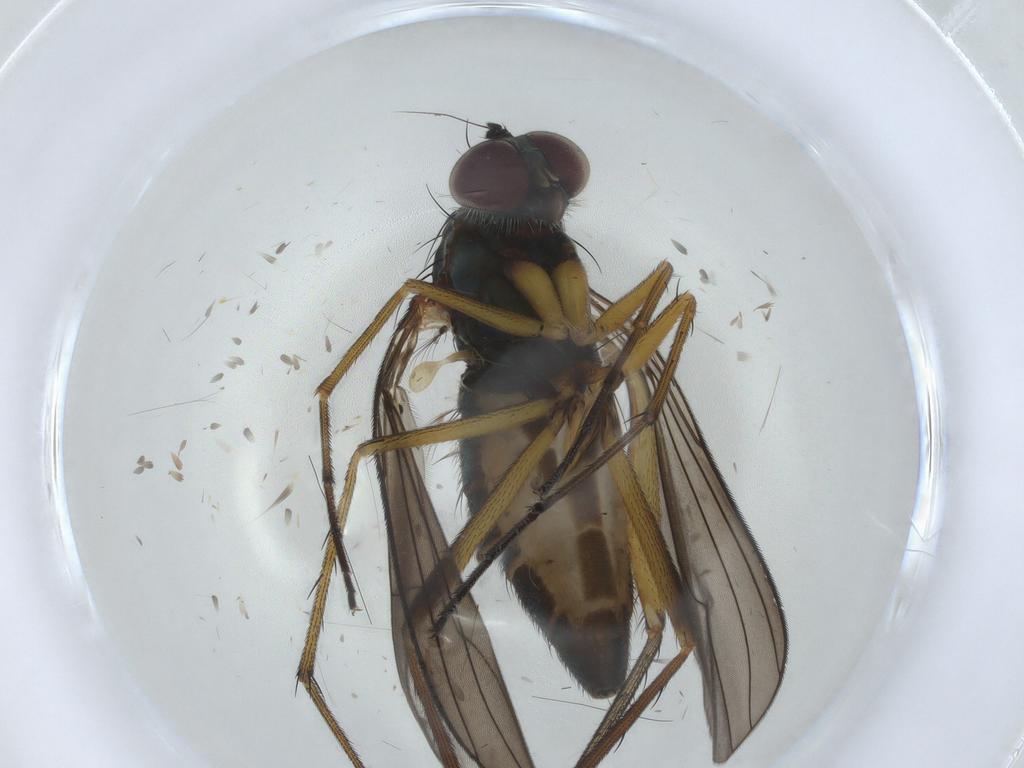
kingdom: Animalia
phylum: Arthropoda
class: Insecta
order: Diptera
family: Dolichopodidae
